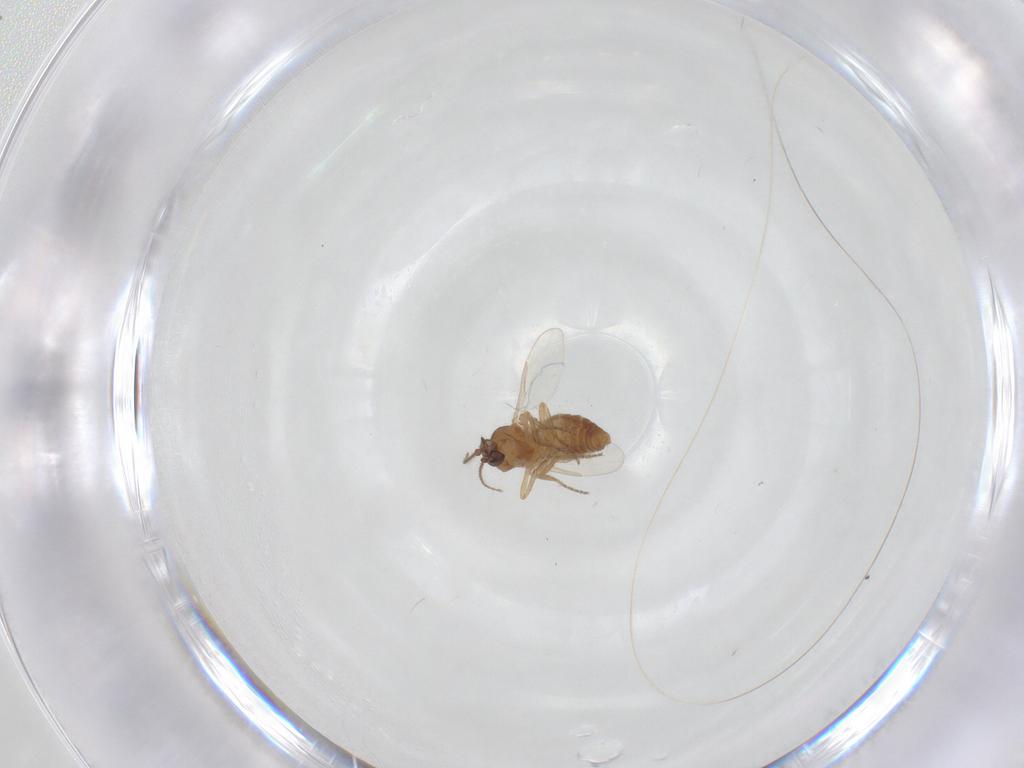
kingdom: Animalia
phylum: Arthropoda
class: Insecta
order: Diptera
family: Ceratopogonidae
